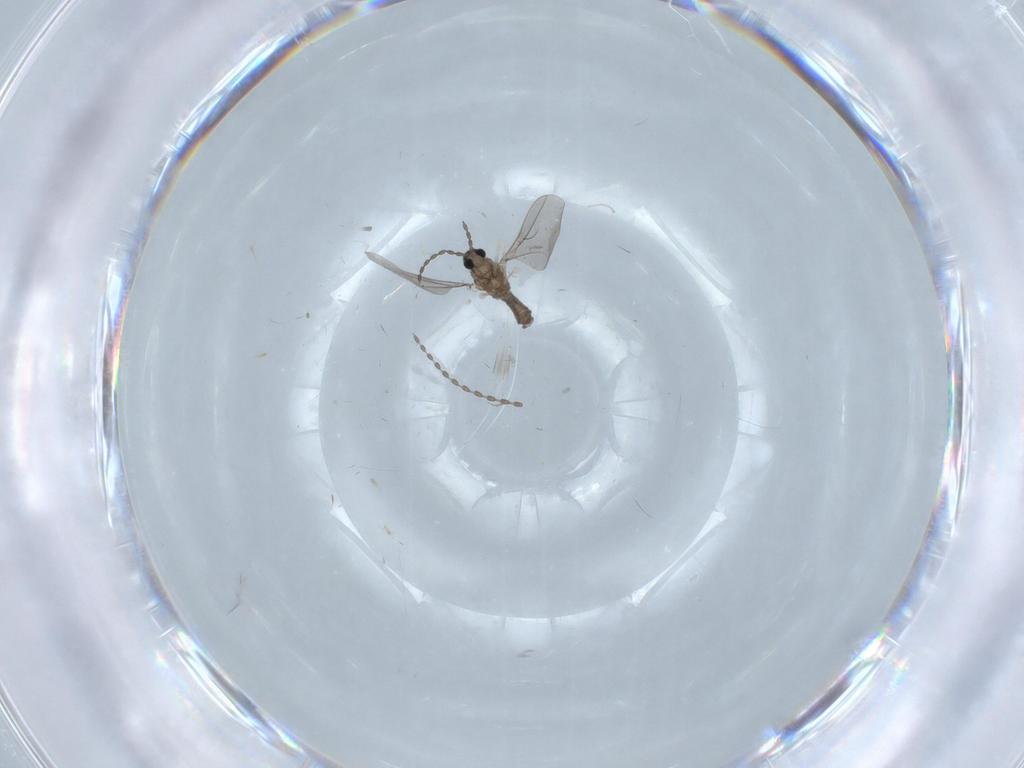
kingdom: Animalia
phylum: Arthropoda
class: Insecta
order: Diptera
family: Cecidomyiidae
